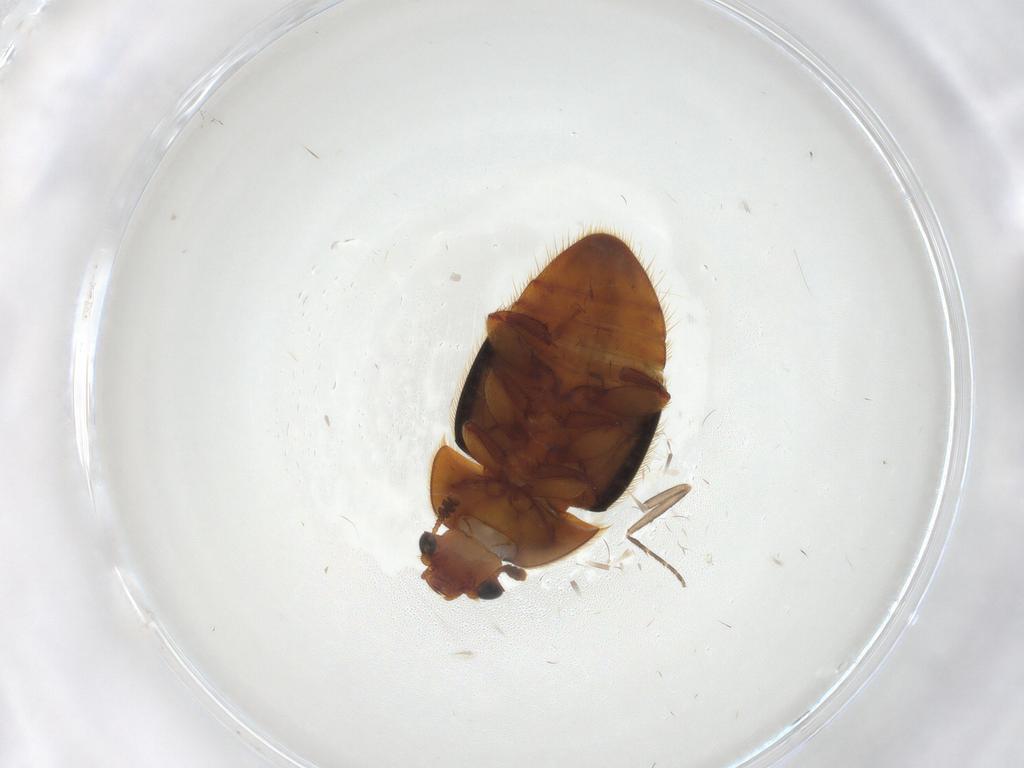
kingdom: Animalia
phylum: Arthropoda
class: Insecta
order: Coleoptera
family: Nitidulidae
